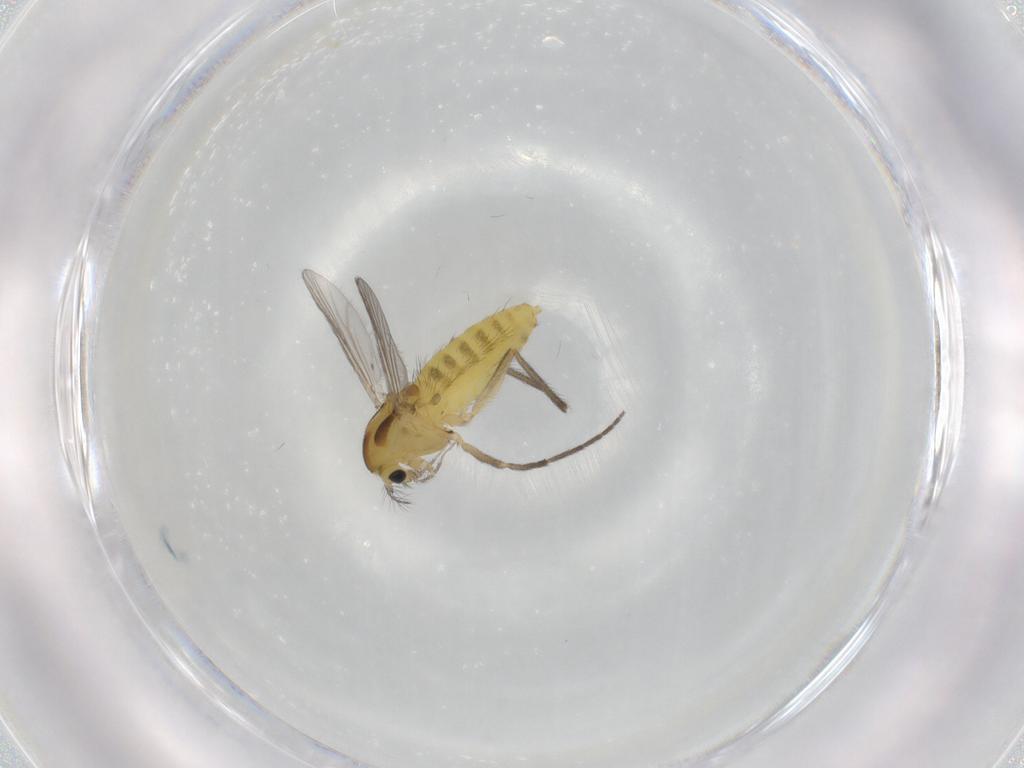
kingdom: Animalia
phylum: Arthropoda
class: Insecta
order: Diptera
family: Chironomidae
